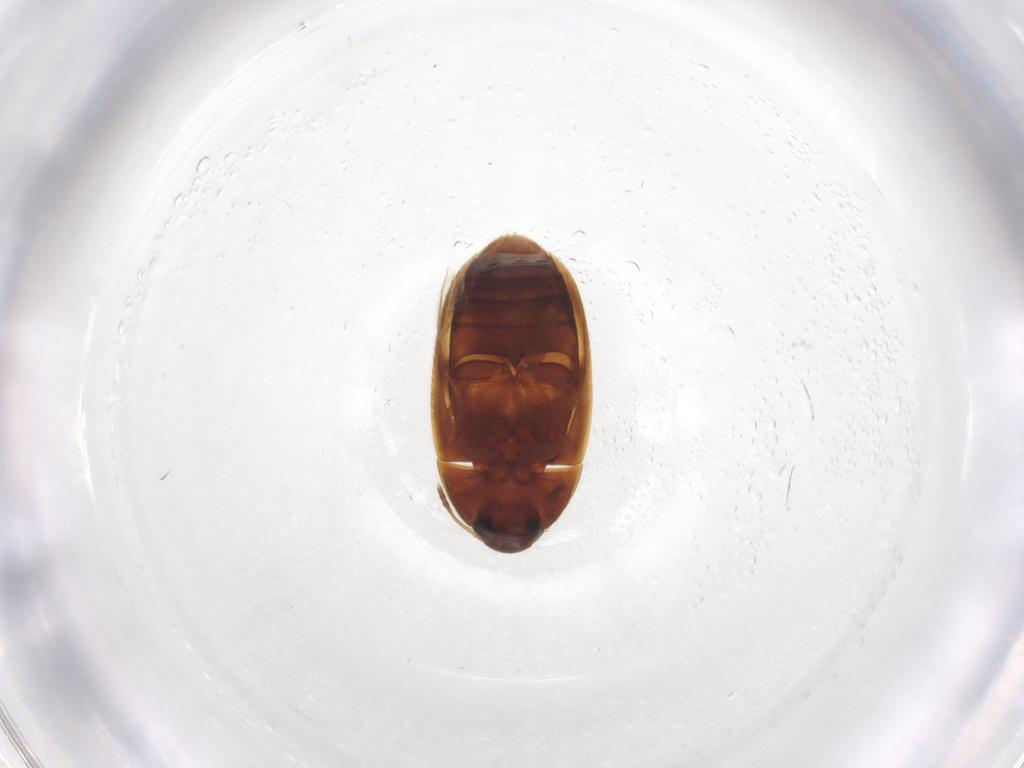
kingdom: Animalia
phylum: Arthropoda
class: Insecta
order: Coleoptera
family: Mycetophagidae
